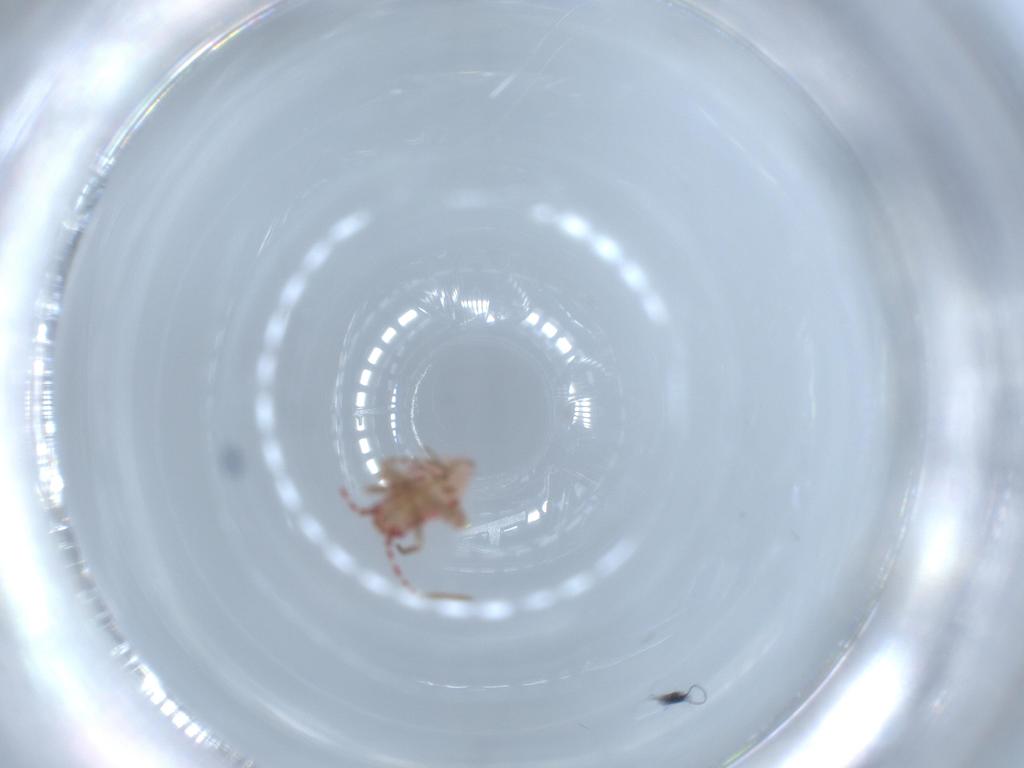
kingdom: Animalia
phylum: Arthropoda
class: Insecta
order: Hemiptera
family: Miridae
